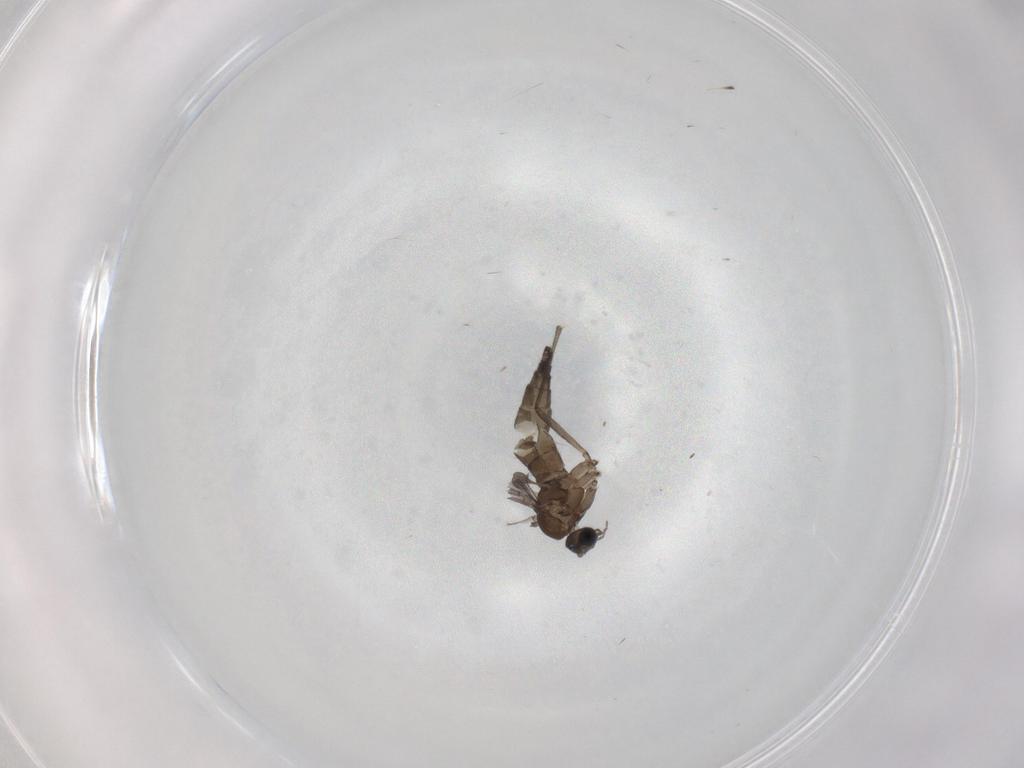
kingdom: Animalia
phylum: Arthropoda
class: Insecta
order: Diptera
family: Sciaridae
